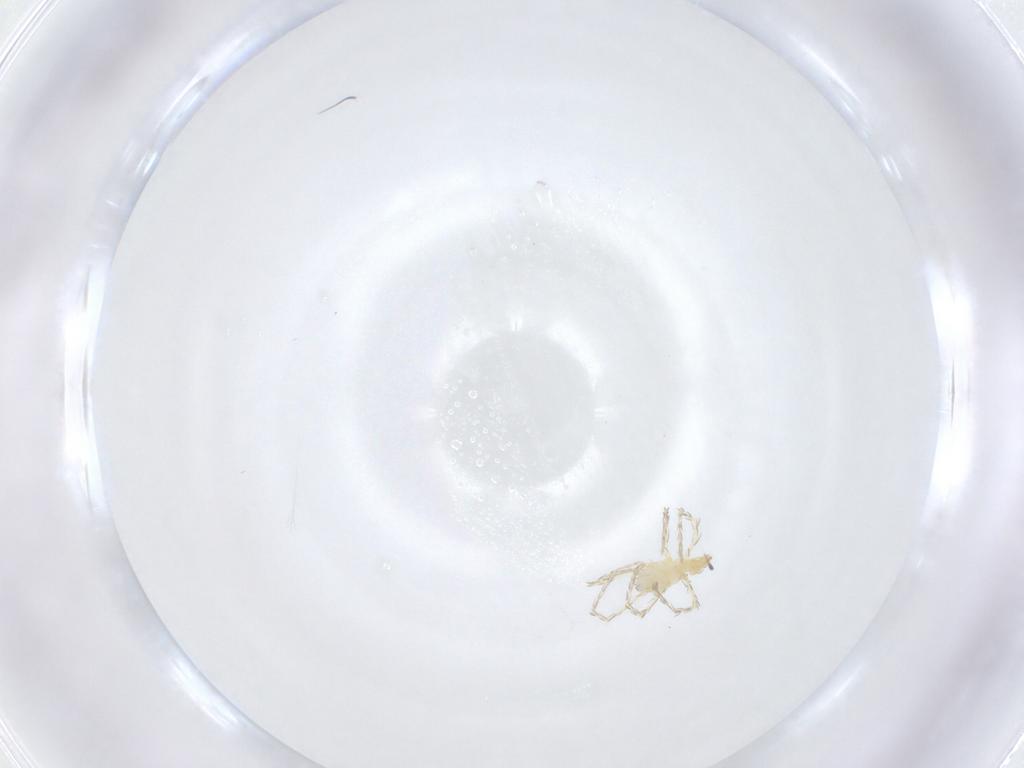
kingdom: Animalia
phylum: Arthropoda
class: Arachnida
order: Trombidiformes
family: Erythraeidae
